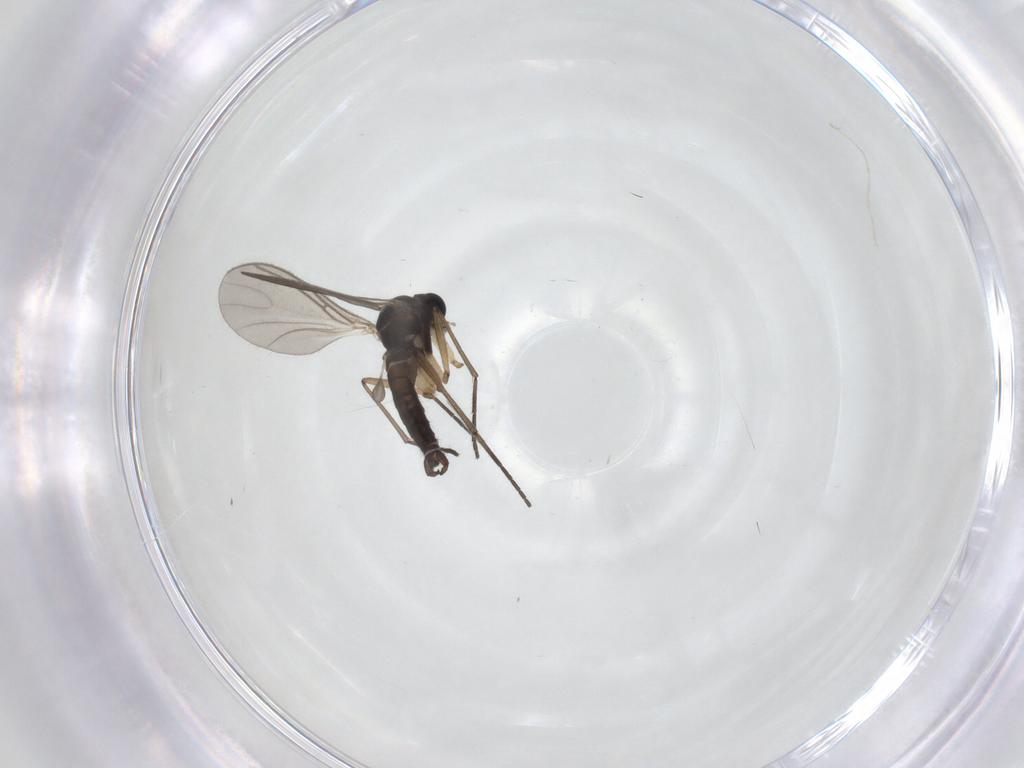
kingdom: Animalia
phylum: Arthropoda
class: Insecta
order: Diptera
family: Sciaridae
